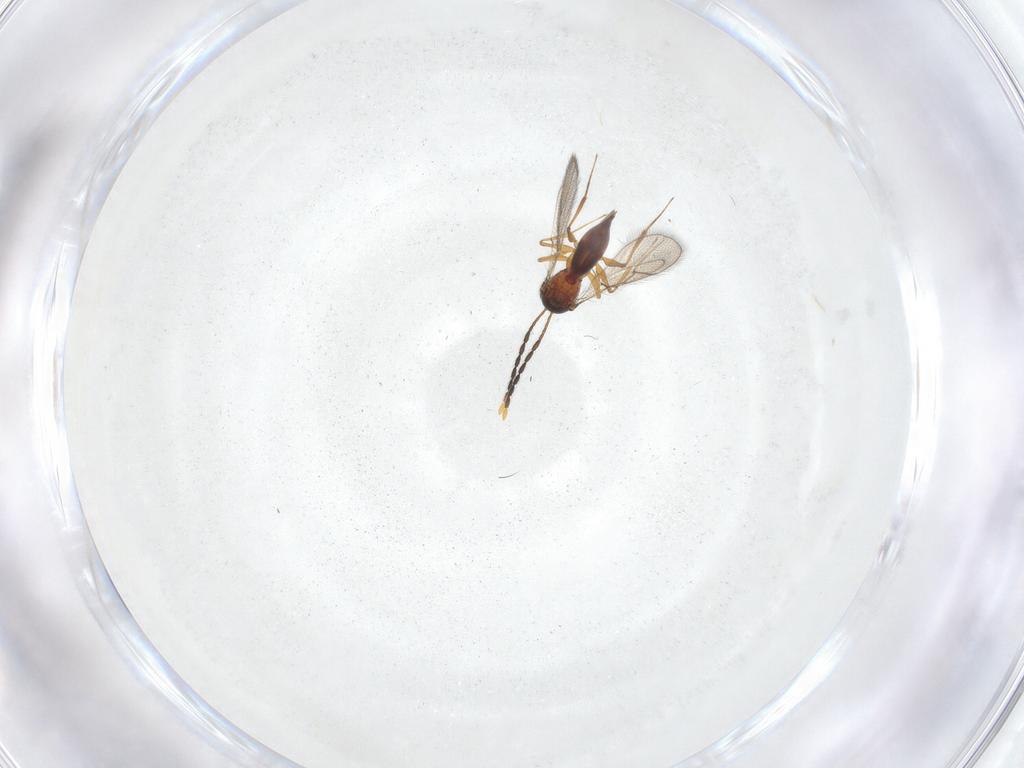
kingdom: Animalia
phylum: Arthropoda
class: Insecta
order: Hymenoptera
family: Figitidae
